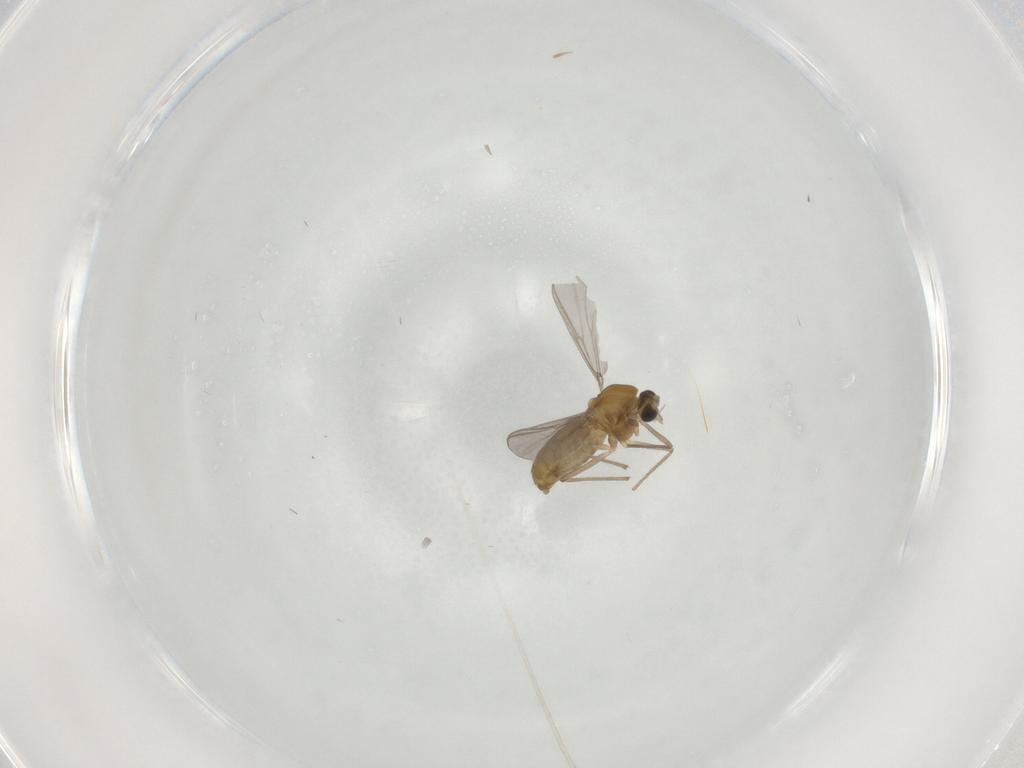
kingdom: Animalia
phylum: Arthropoda
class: Insecta
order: Diptera
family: Chironomidae
